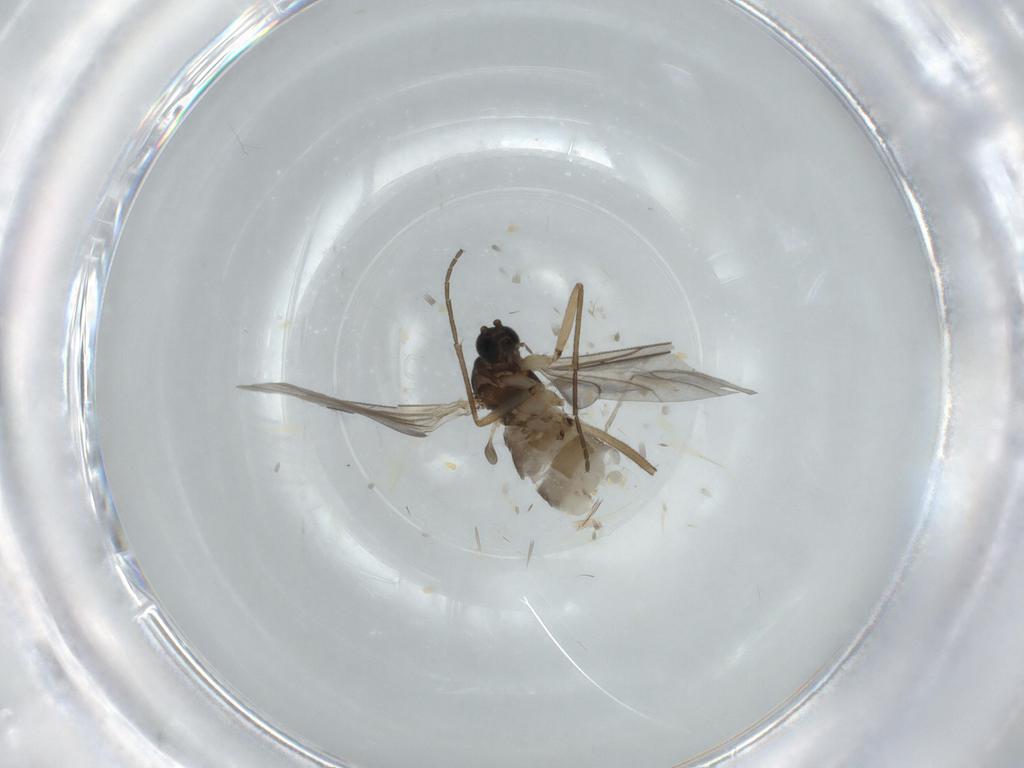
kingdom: Animalia
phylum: Arthropoda
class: Insecta
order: Diptera
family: Sciaridae
